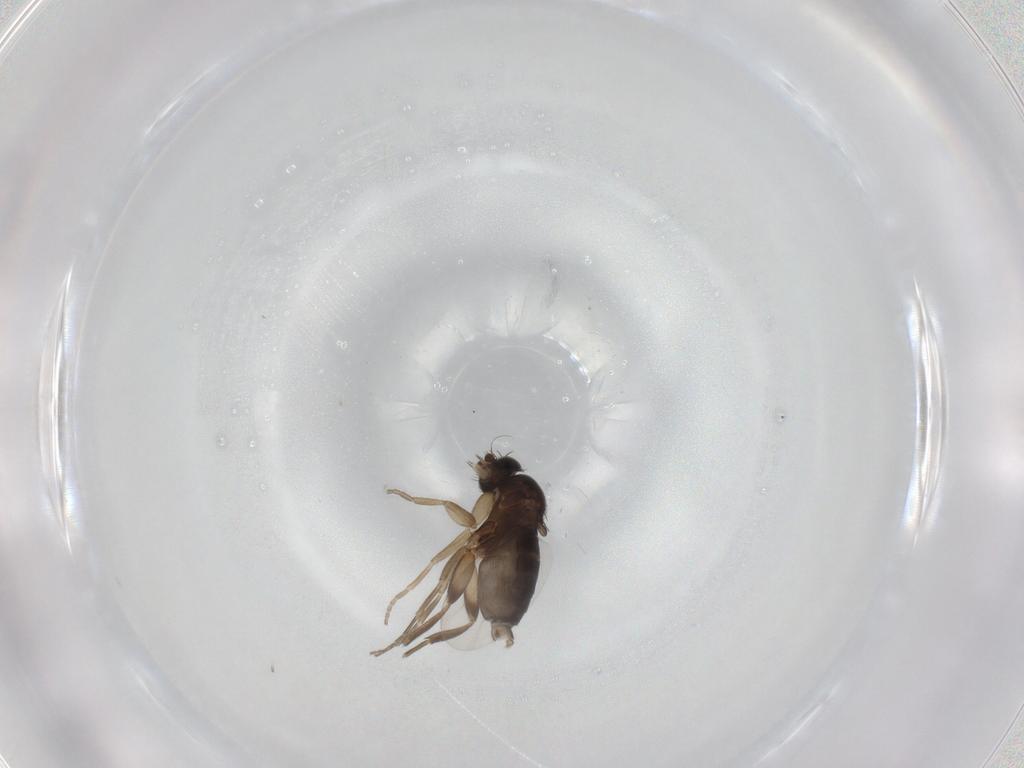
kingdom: Animalia
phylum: Arthropoda
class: Insecta
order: Diptera
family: Phoridae
